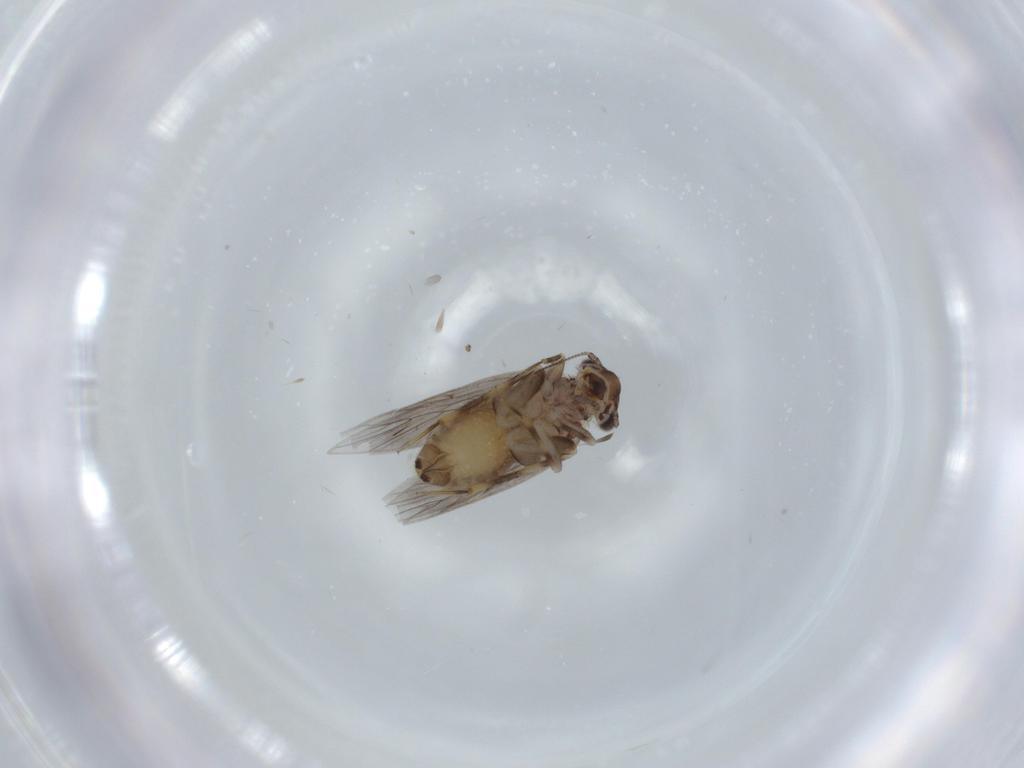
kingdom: Animalia
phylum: Arthropoda
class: Insecta
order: Psocodea
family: Lepidopsocidae
